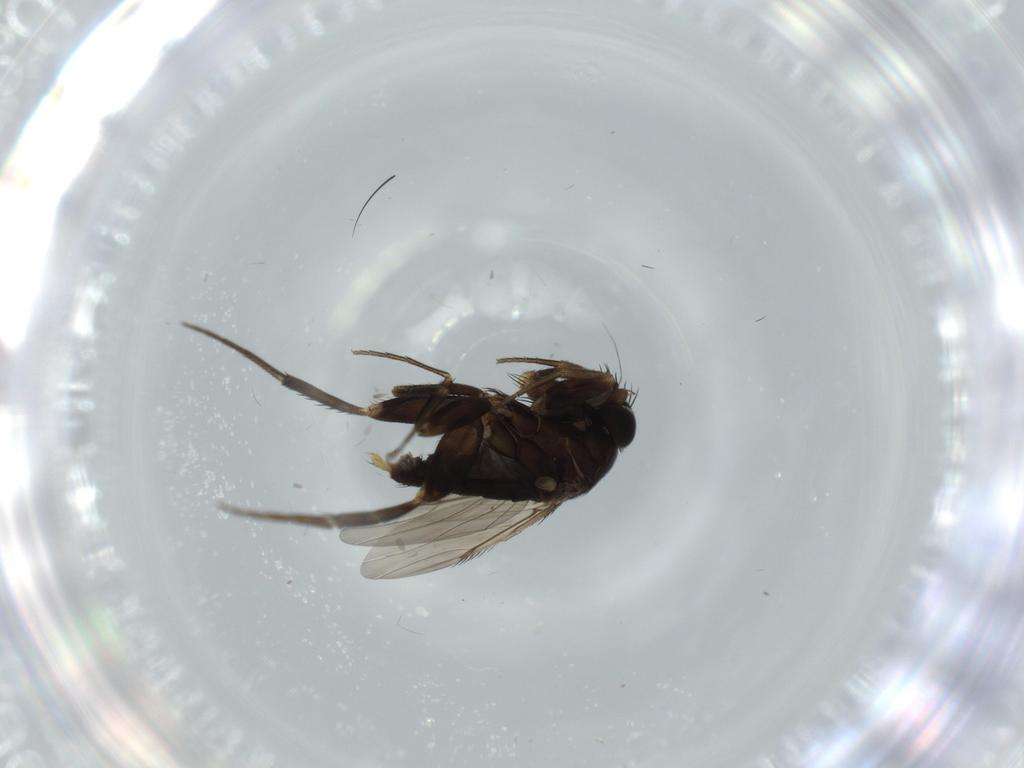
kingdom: Animalia
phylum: Arthropoda
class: Insecta
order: Diptera
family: Phoridae
